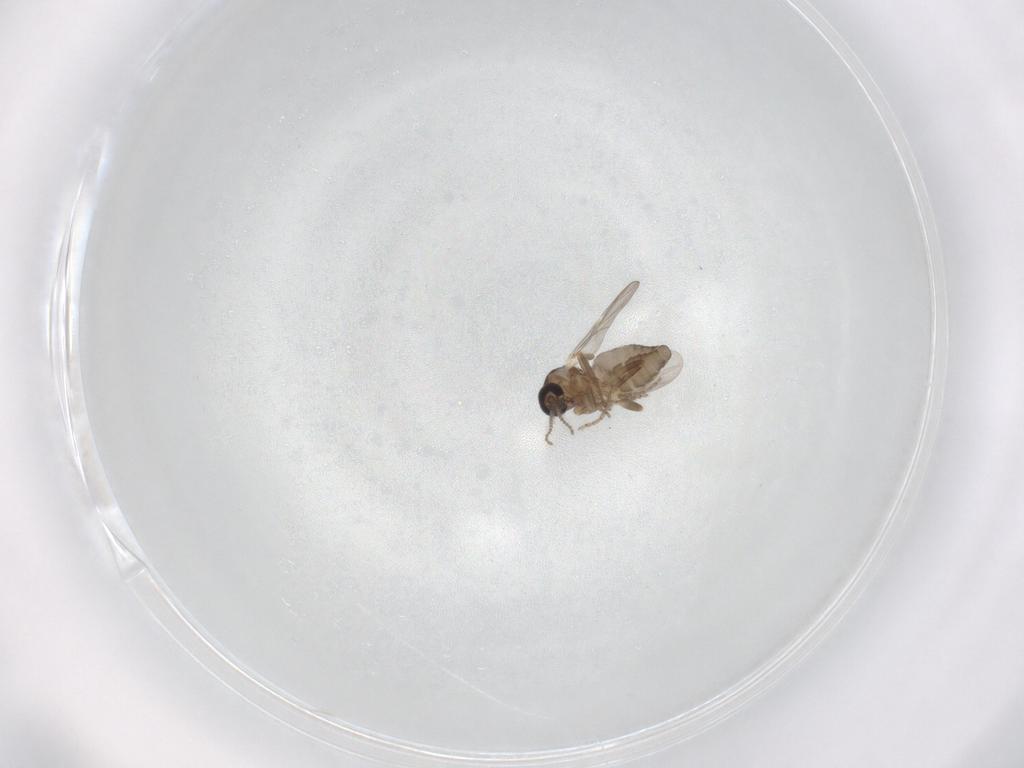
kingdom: Animalia
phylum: Arthropoda
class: Insecta
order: Diptera
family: Ceratopogonidae
